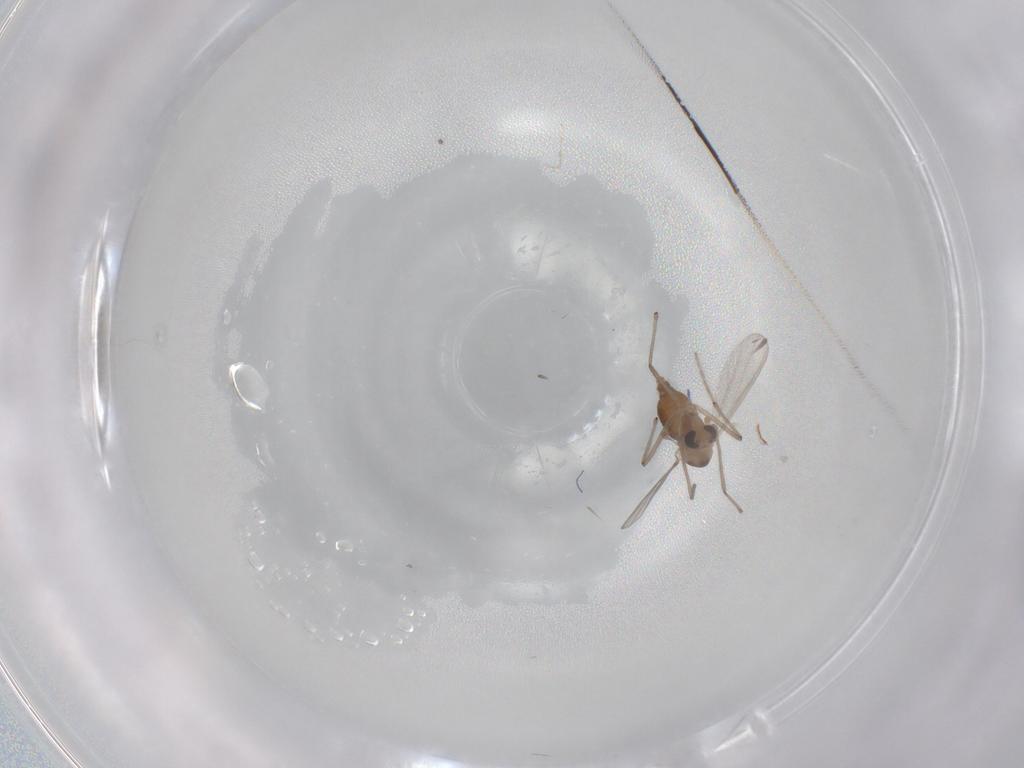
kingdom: Animalia
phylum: Arthropoda
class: Insecta
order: Diptera
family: Chironomidae
